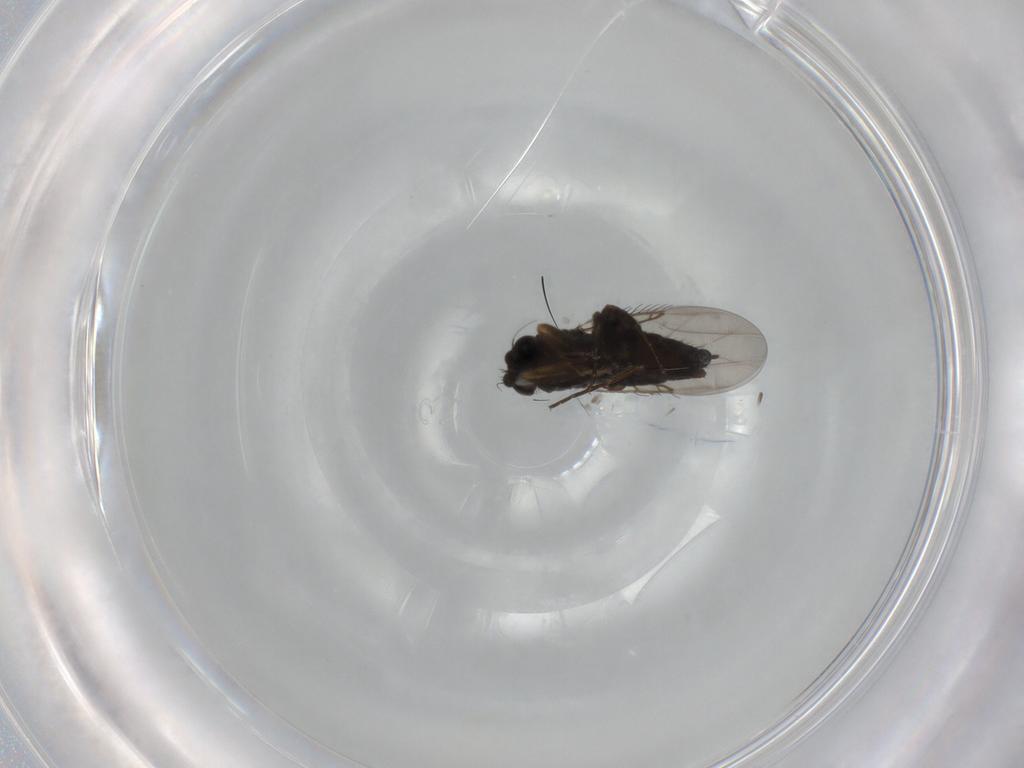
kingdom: Animalia
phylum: Arthropoda
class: Insecta
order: Diptera
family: Phoridae
